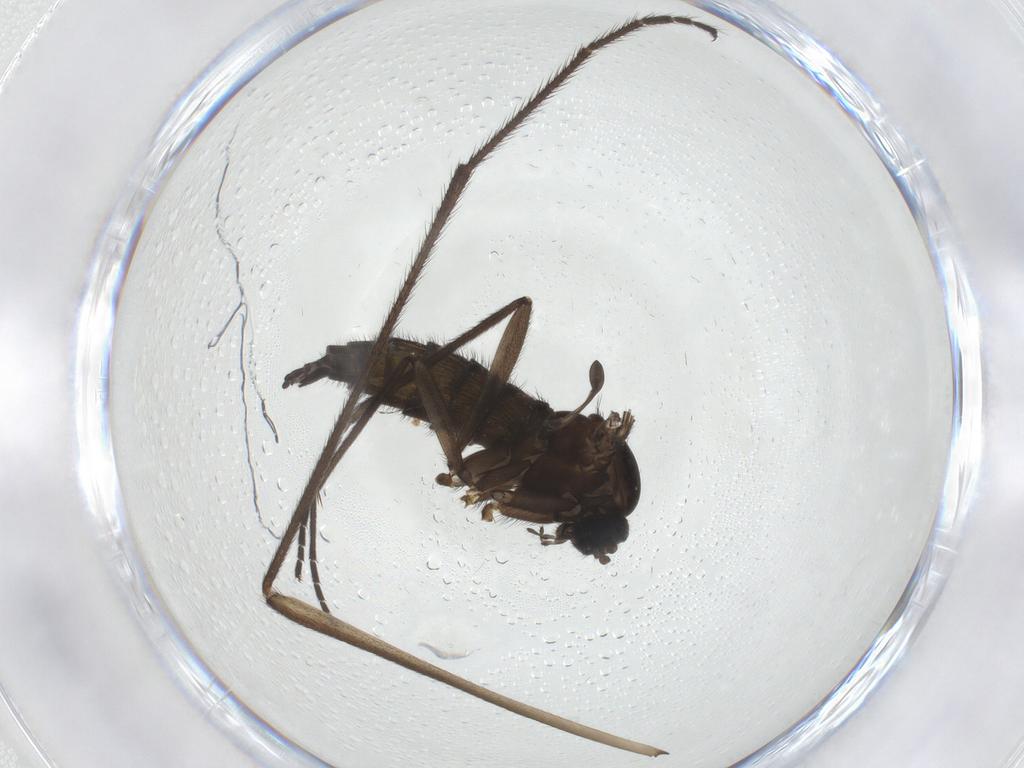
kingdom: Animalia
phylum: Arthropoda
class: Insecta
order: Diptera
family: Sciaridae
